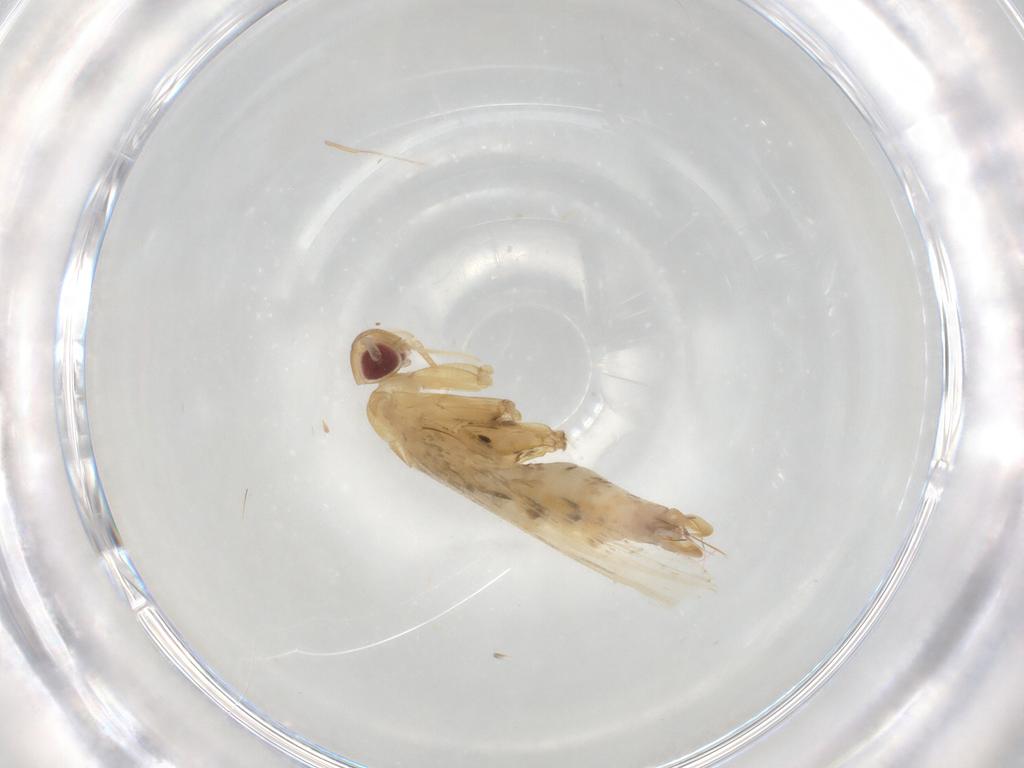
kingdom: Animalia
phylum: Arthropoda
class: Insecta
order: Lepidoptera
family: Cosmopterigidae
